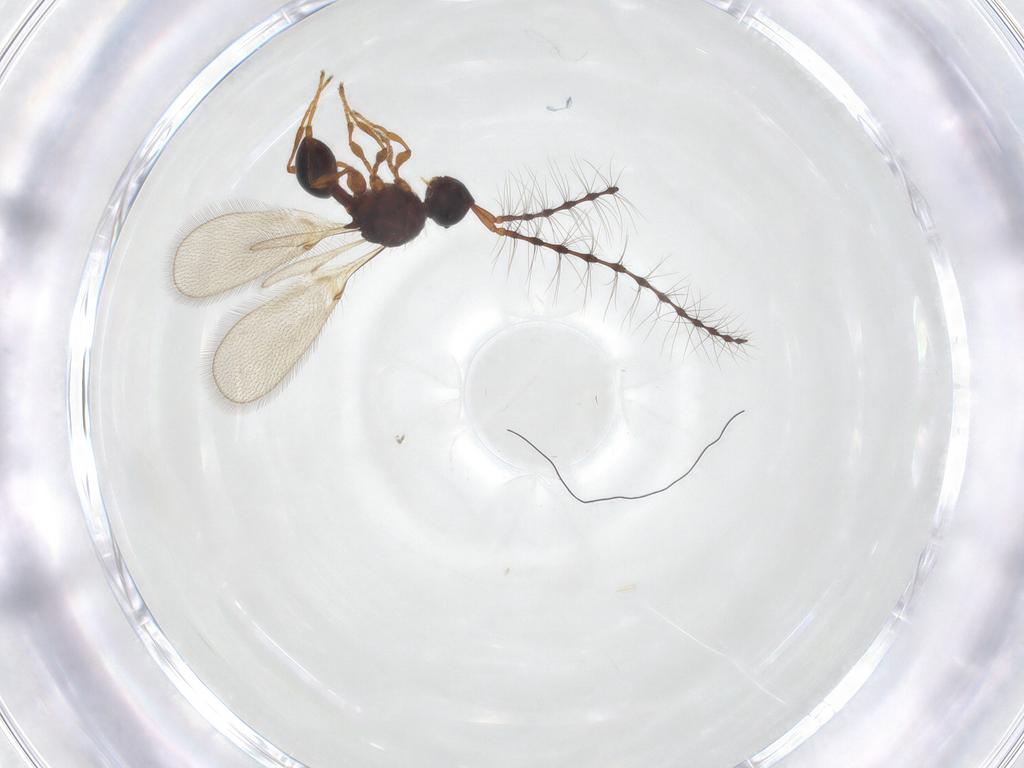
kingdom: Animalia
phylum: Arthropoda
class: Insecta
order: Hymenoptera
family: Diapriidae
